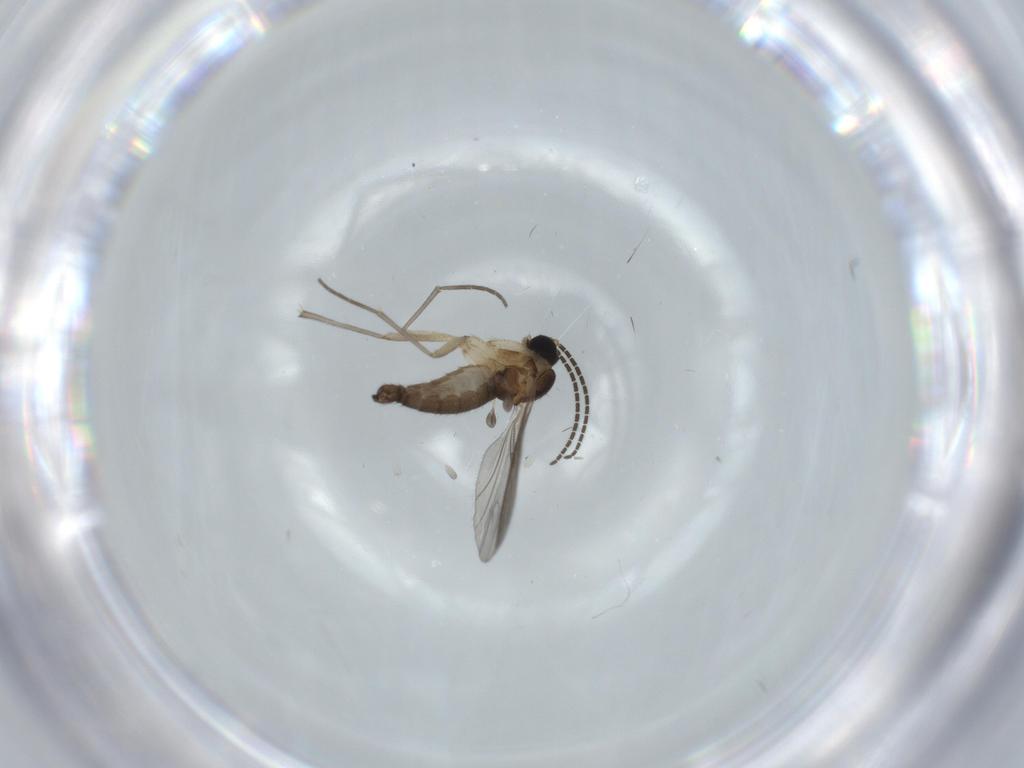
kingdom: Animalia
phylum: Arthropoda
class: Insecta
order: Diptera
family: Sciaridae
